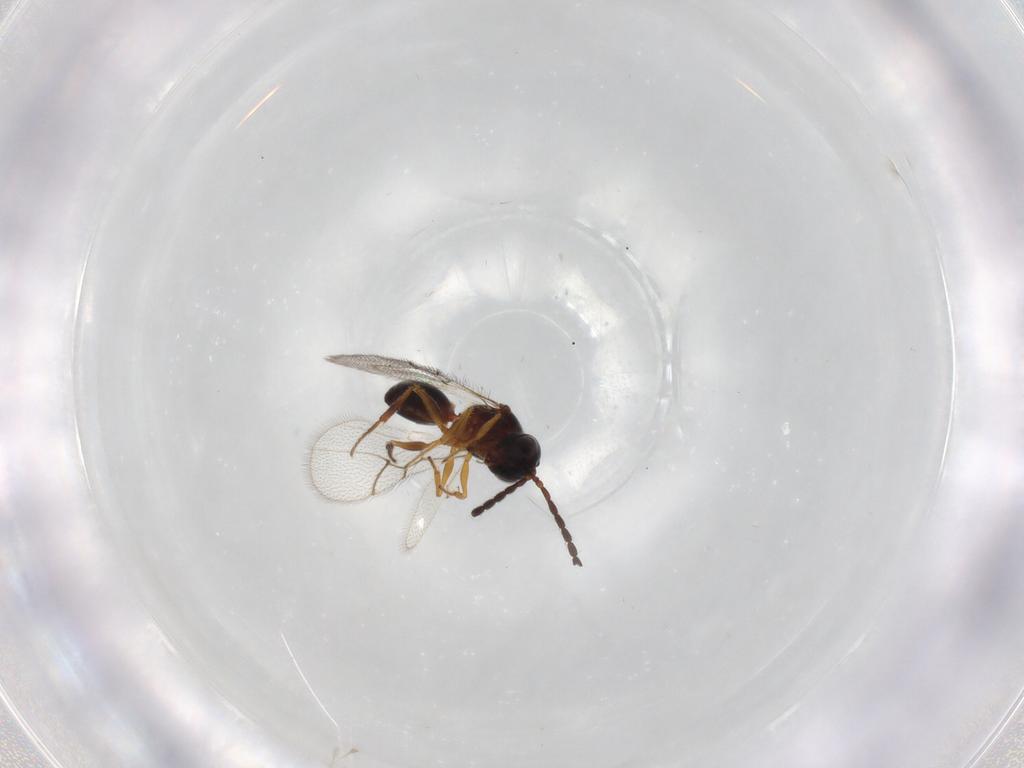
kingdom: Animalia
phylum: Arthropoda
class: Insecta
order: Hymenoptera
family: Figitidae
